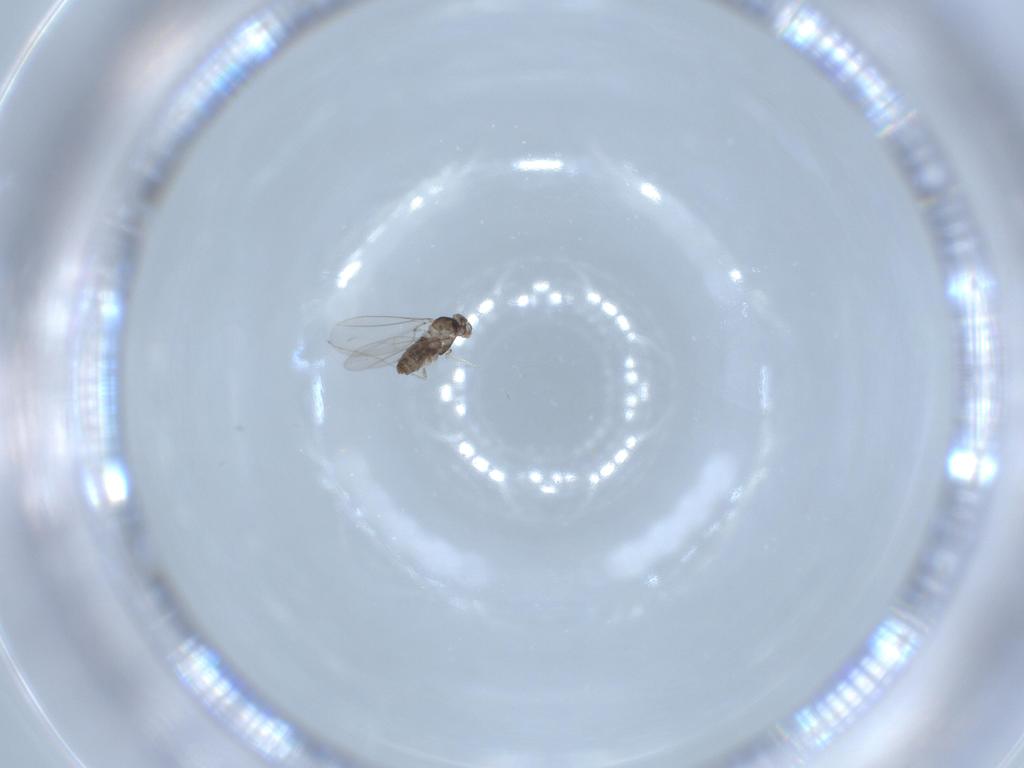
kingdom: Animalia
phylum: Arthropoda
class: Insecta
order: Diptera
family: Cecidomyiidae
